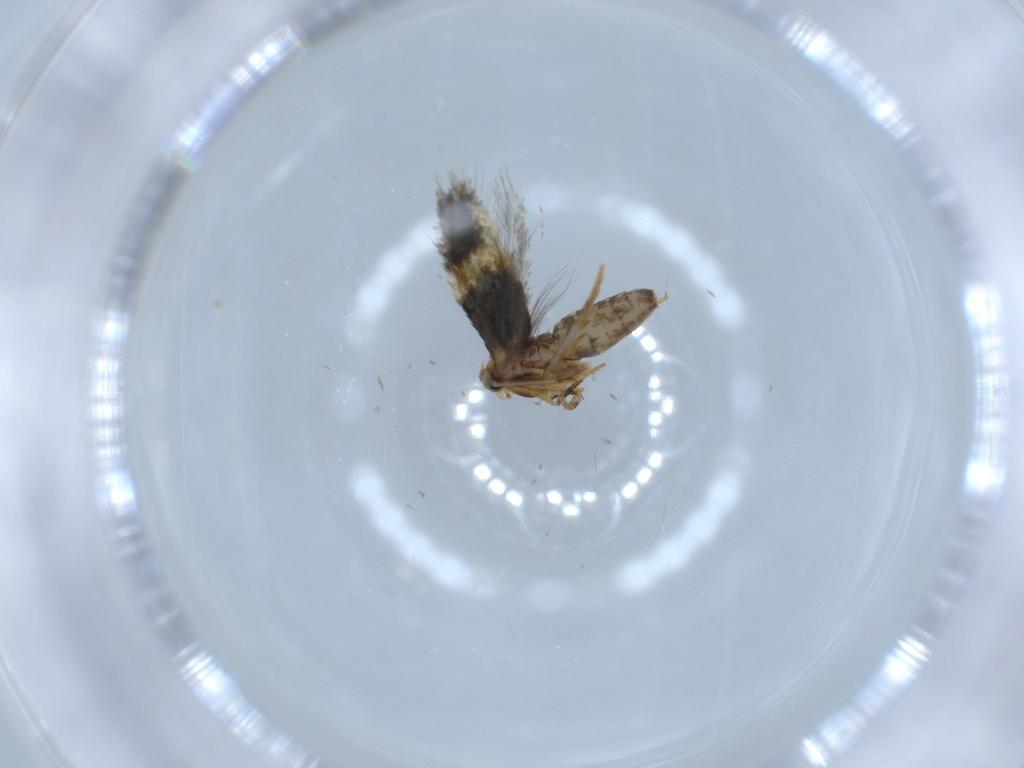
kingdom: Animalia
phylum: Arthropoda
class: Insecta
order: Lepidoptera
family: Nepticulidae
